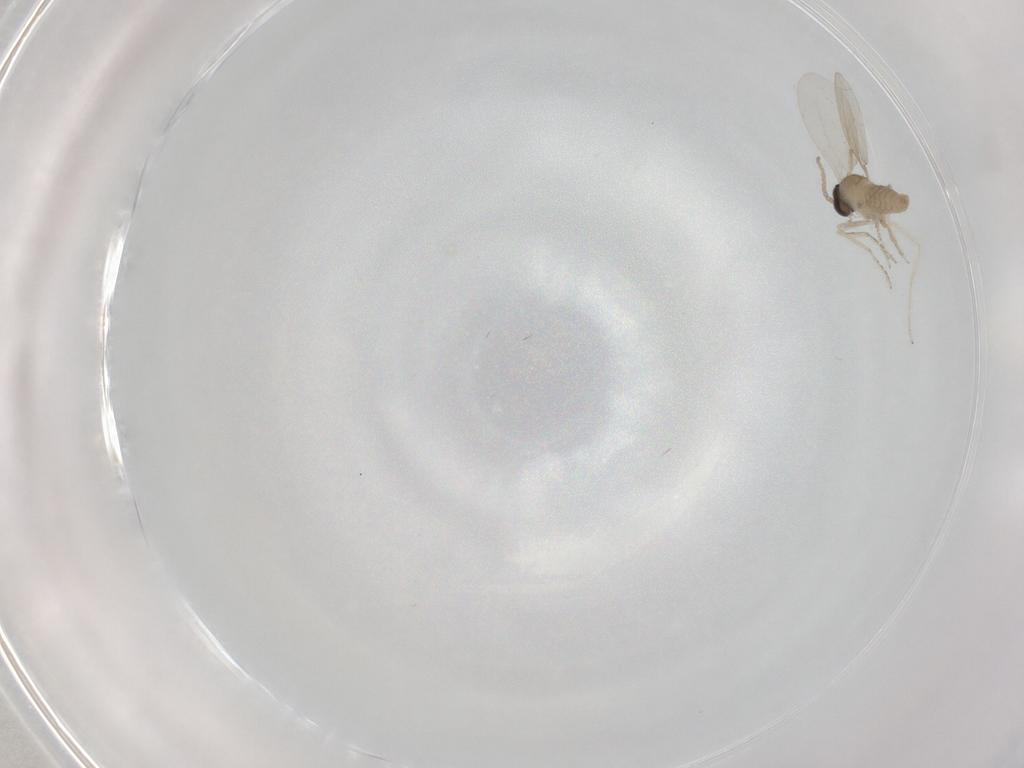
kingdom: Animalia
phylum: Arthropoda
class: Insecta
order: Diptera
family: Cecidomyiidae
